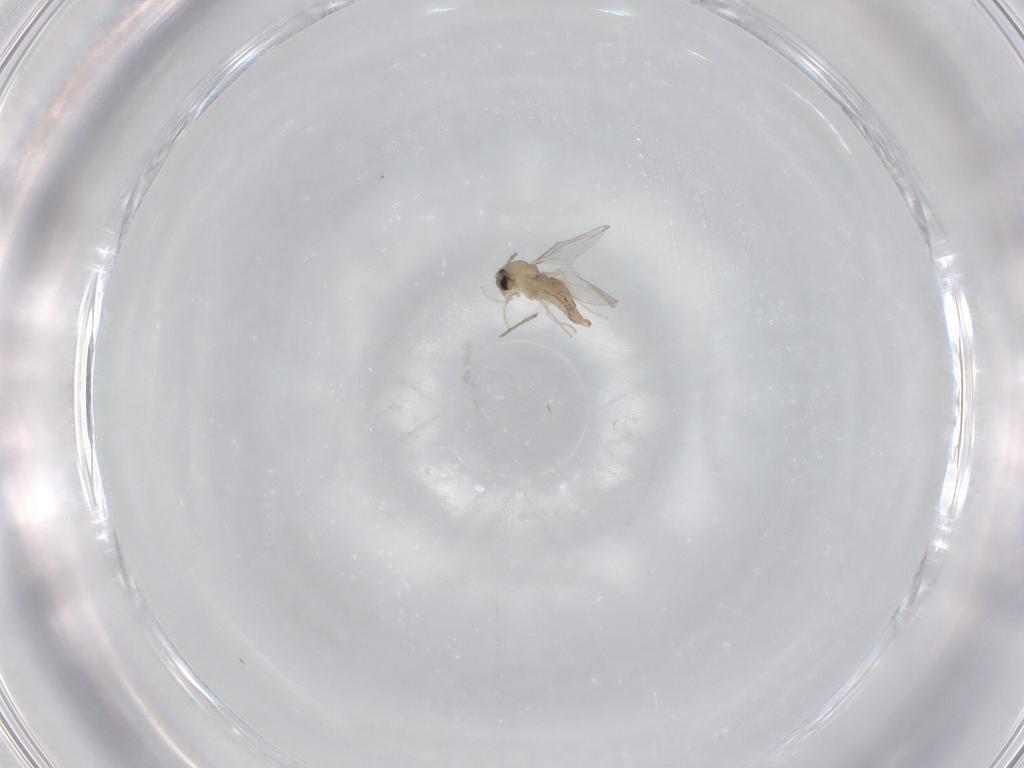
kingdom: Animalia
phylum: Arthropoda
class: Insecta
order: Diptera
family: Cecidomyiidae
